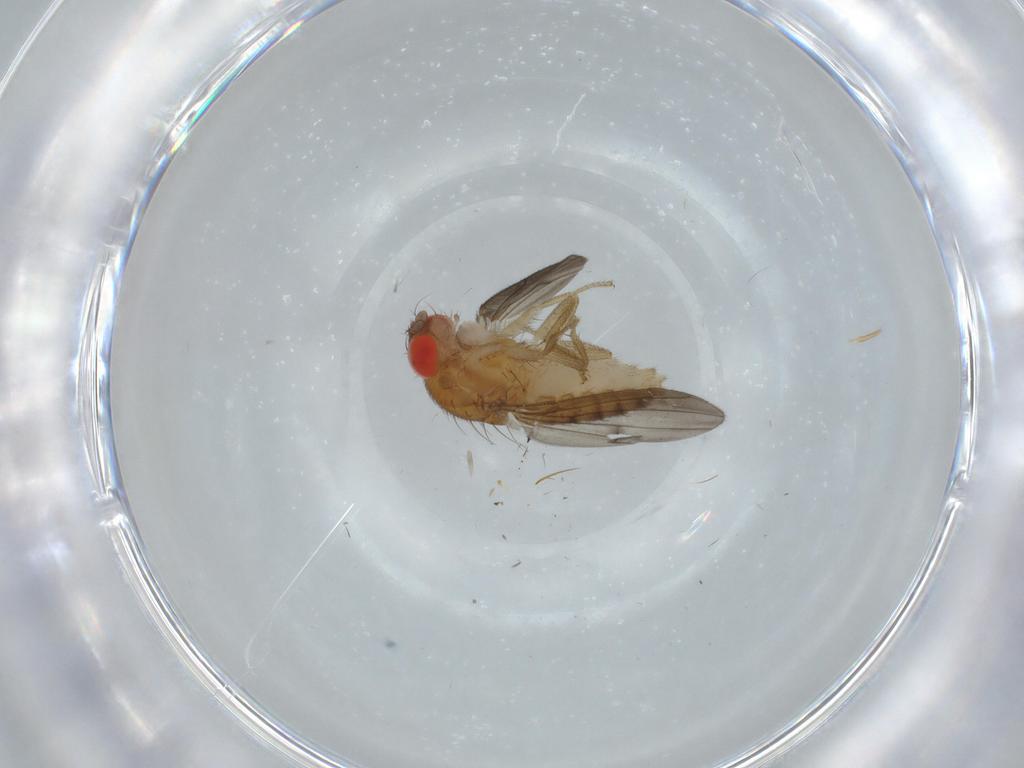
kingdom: Animalia
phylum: Arthropoda
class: Insecta
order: Diptera
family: Drosophilidae
